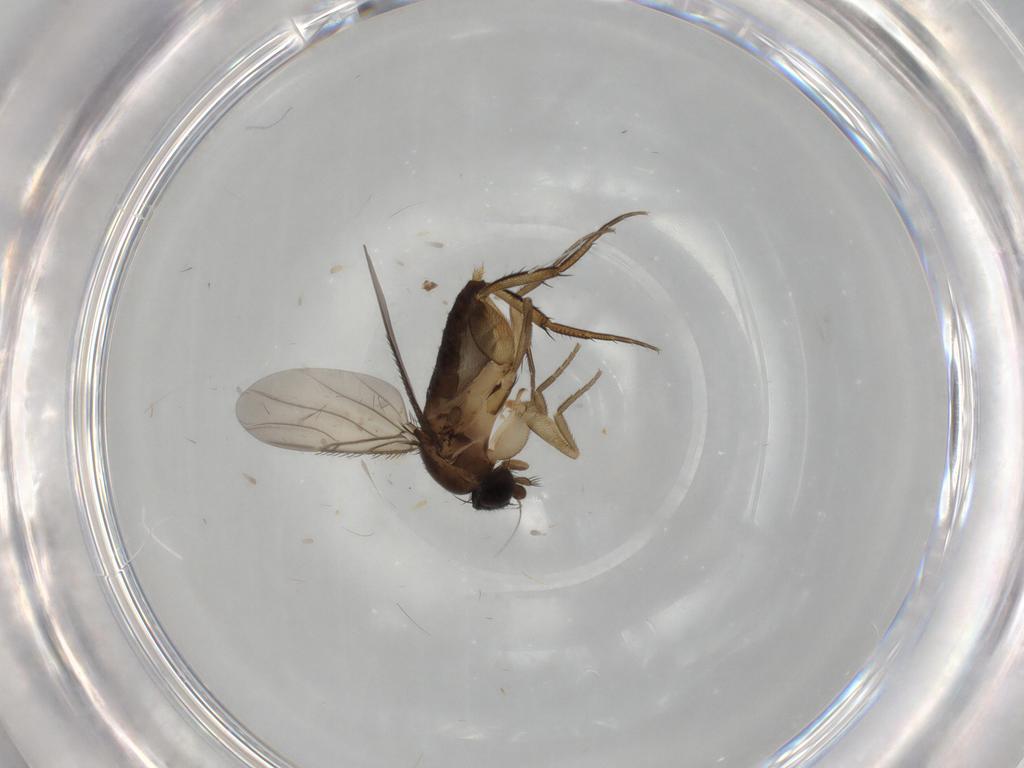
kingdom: Animalia
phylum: Arthropoda
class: Insecta
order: Diptera
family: Phoridae
